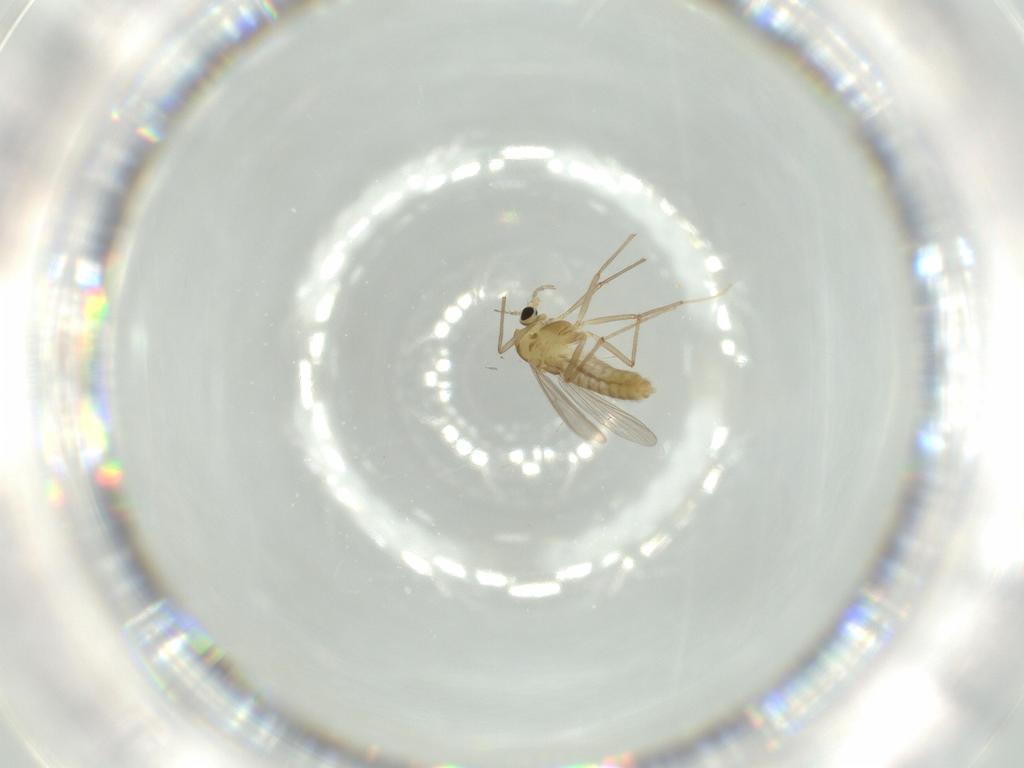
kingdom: Animalia
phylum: Arthropoda
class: Insecta
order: Diptera
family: Chironomidae
